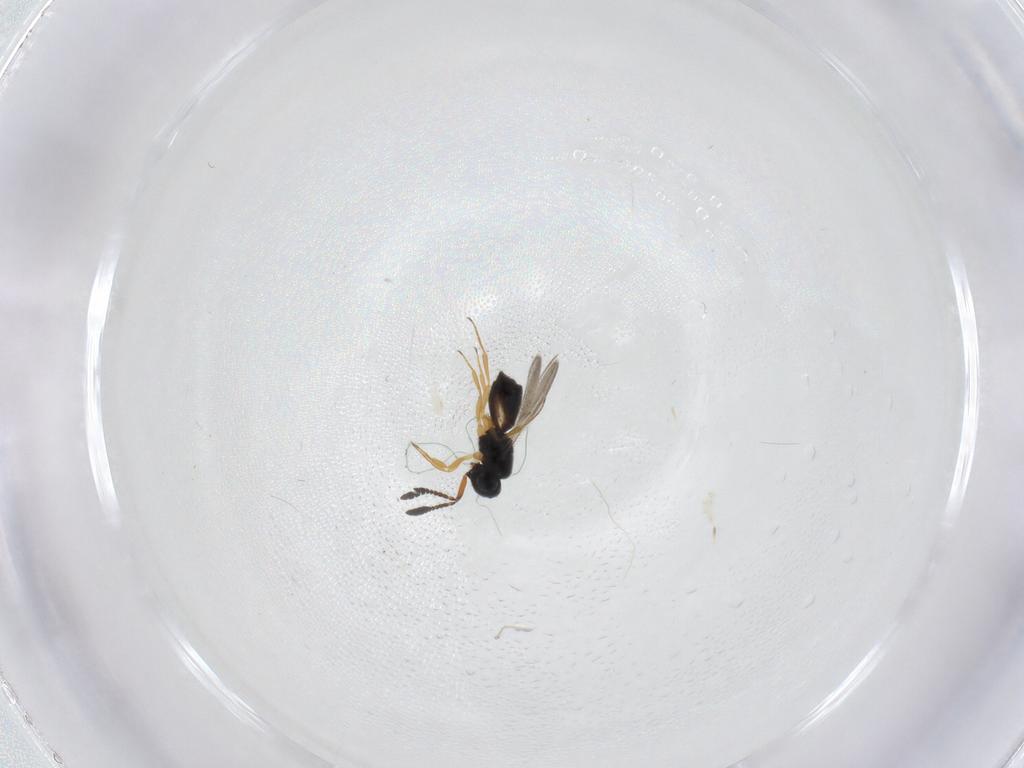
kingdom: Animalia
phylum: Arthropoda
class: Insecta
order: Hymenoptera
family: Scelionidae
